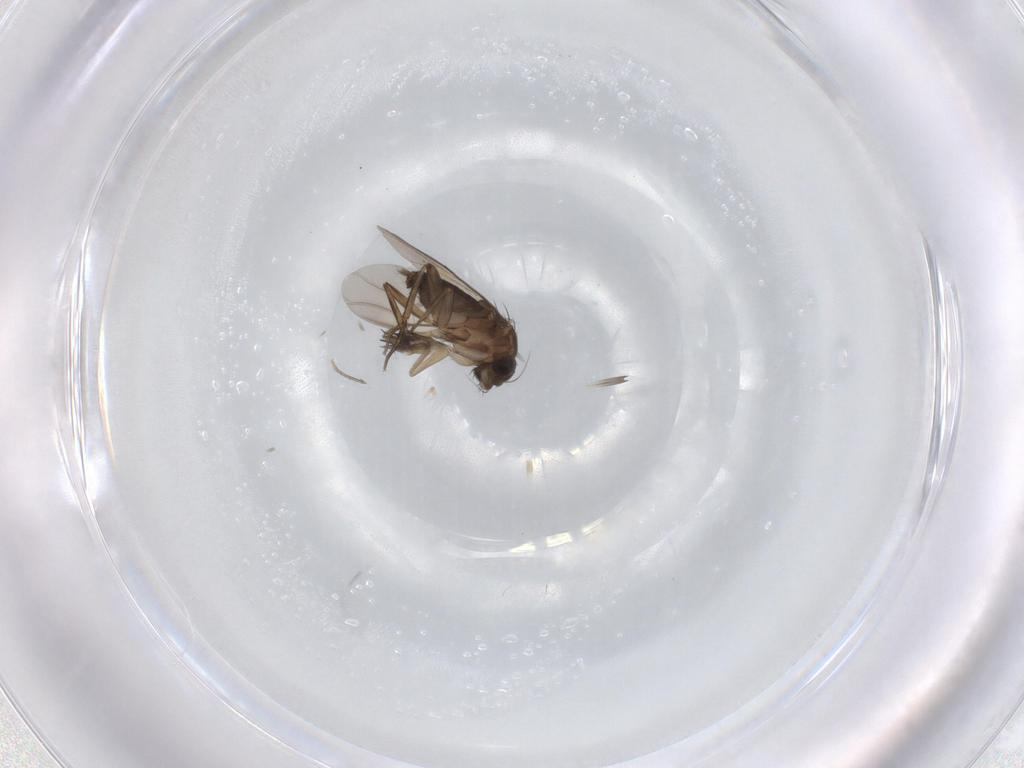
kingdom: Animalia
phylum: Arthropoda
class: Insecta
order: Diptera
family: Phoridae
